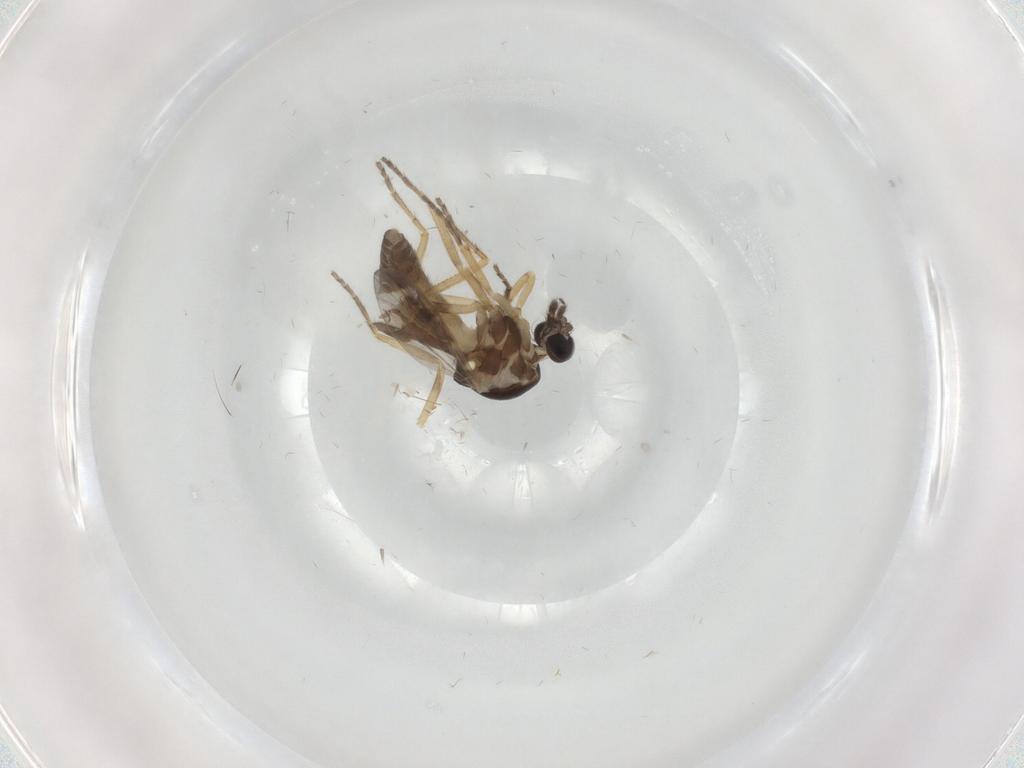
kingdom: Animalia
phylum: Arthropoda
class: Insecta
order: Diptera
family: Ceratopogonidae
